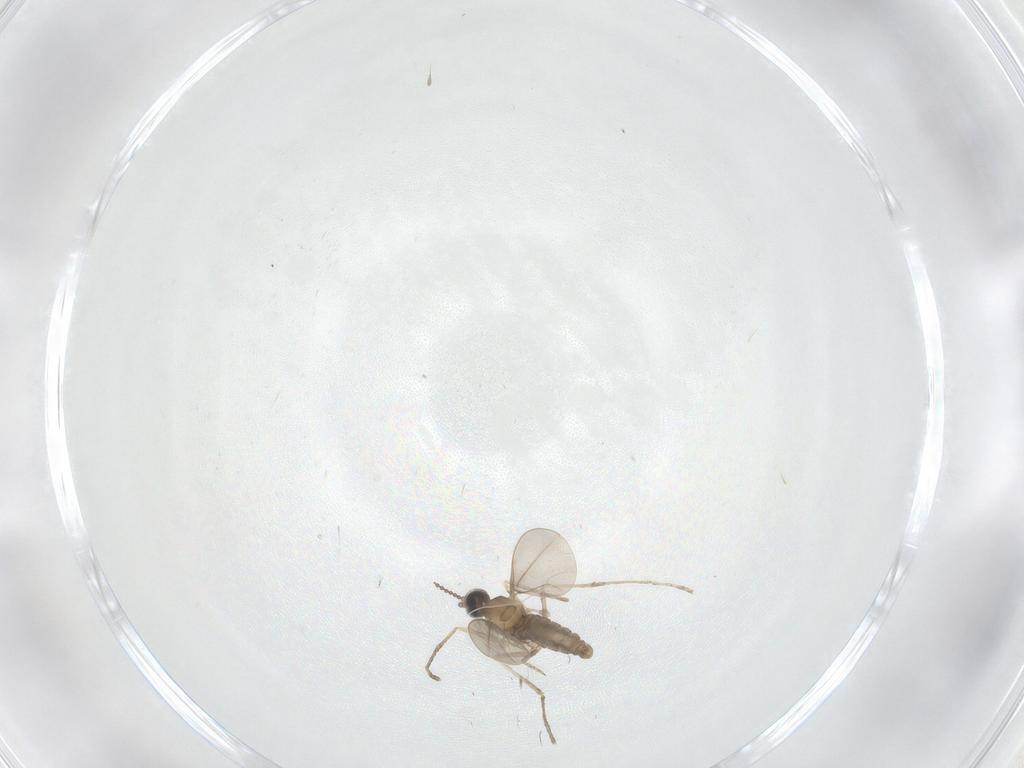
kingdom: Animalia
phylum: Arthropoda
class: Insecta
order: Diptera
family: Cecidomyiidae
